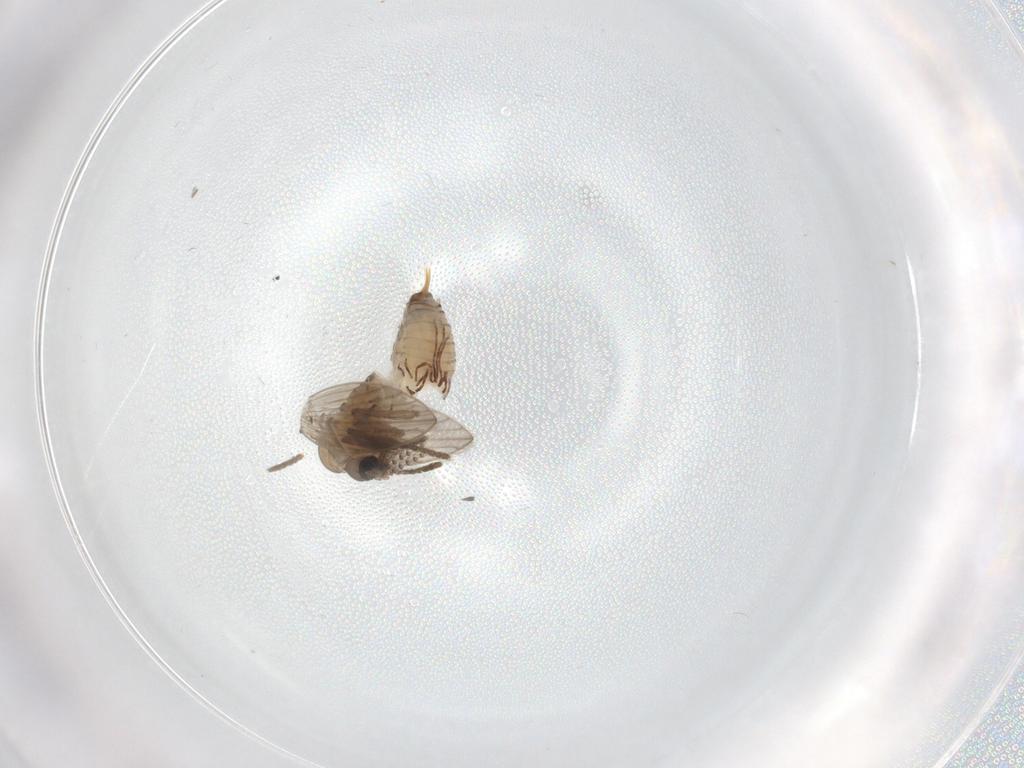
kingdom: Animalia
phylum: Arthropoda
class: Insecta
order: Diptera
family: Psychodidae
